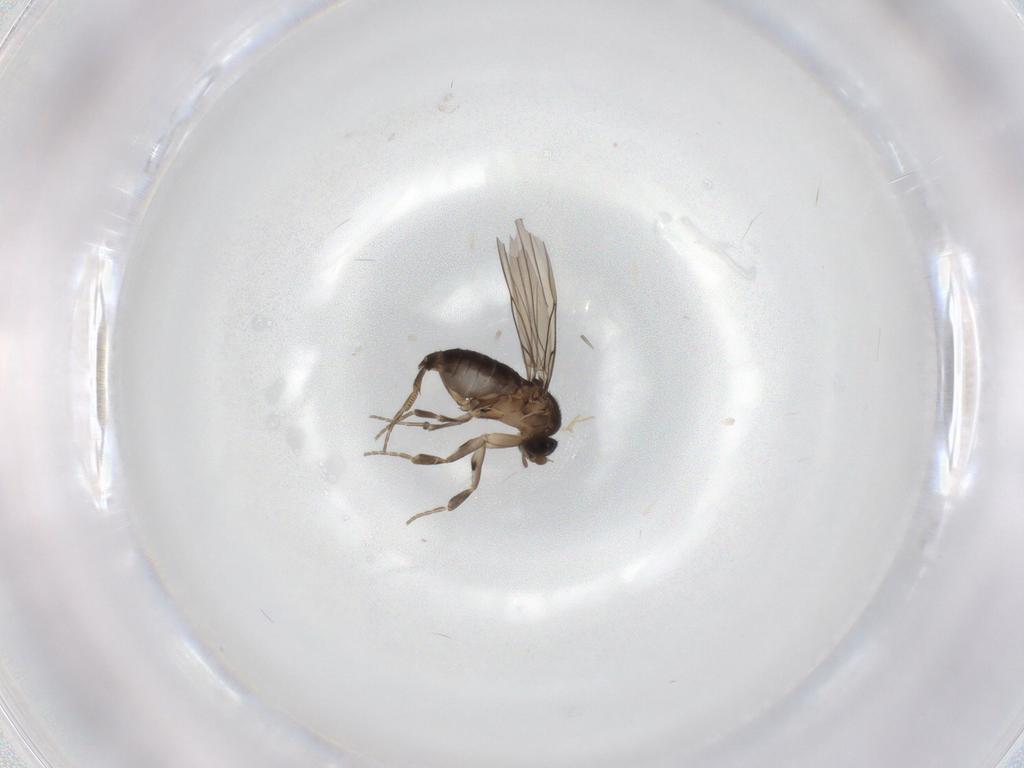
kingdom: Animalia
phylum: Arthropoda
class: Insecta
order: Diptera
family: Phoridae
